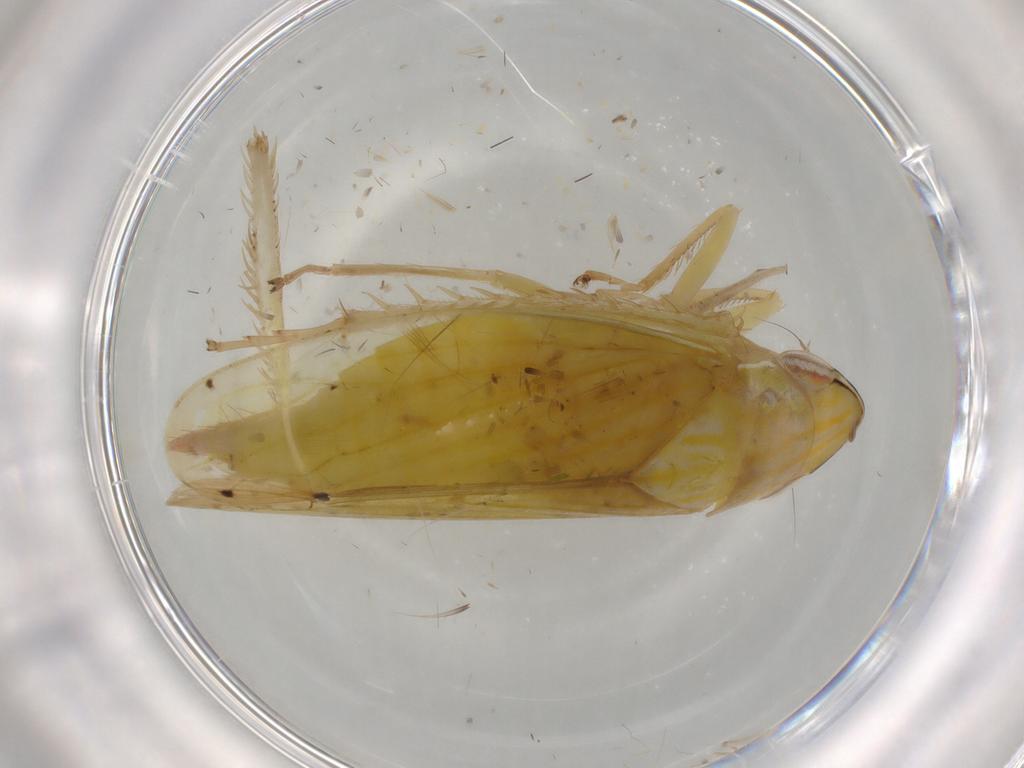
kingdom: Animalia
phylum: Arthropoda
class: Insecta
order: Hemiptera
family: Cicadellidae
